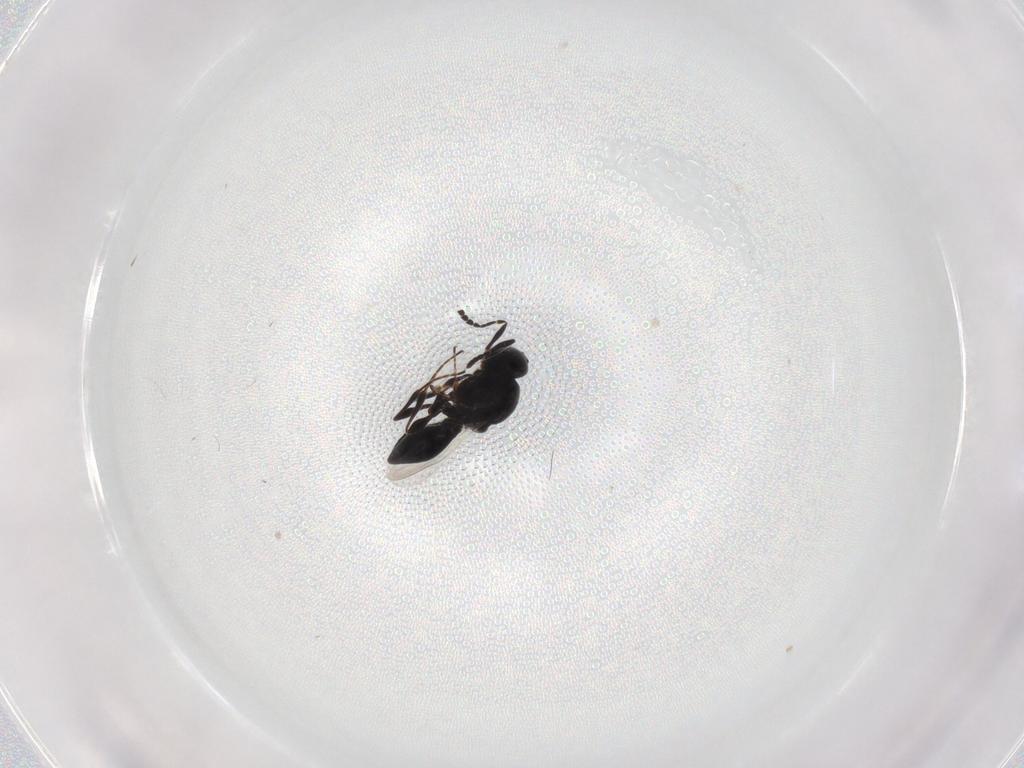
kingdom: Animalia
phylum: Arthropoda
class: Insecta
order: Hymenoptera
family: Platygastridae
